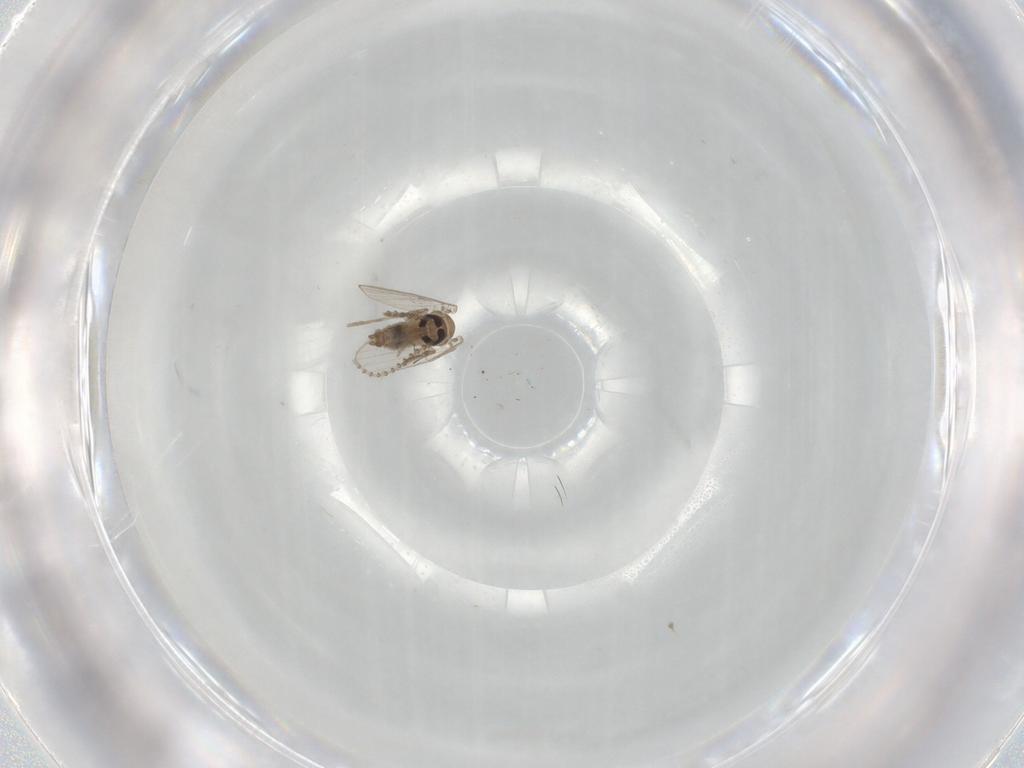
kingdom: Animalia
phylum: Arthropoda
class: Insecta
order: Diptera
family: Psychodidae
